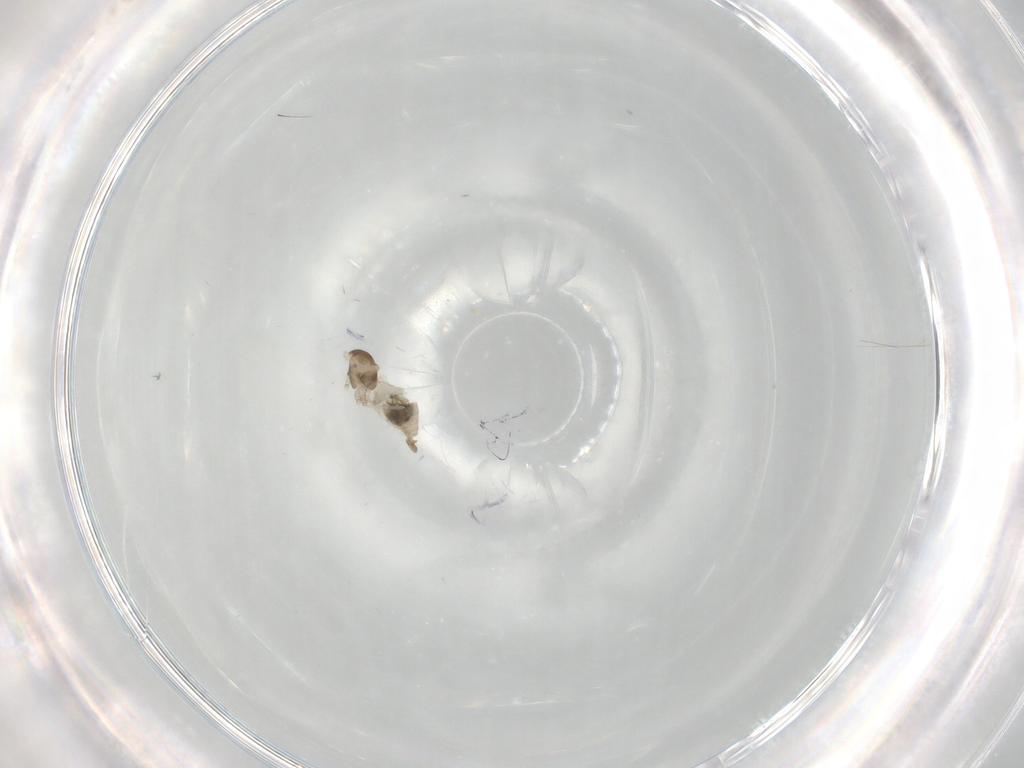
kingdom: Animalia
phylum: Arthropoda
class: Insecta
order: Diptera
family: Cecidomyiidae
